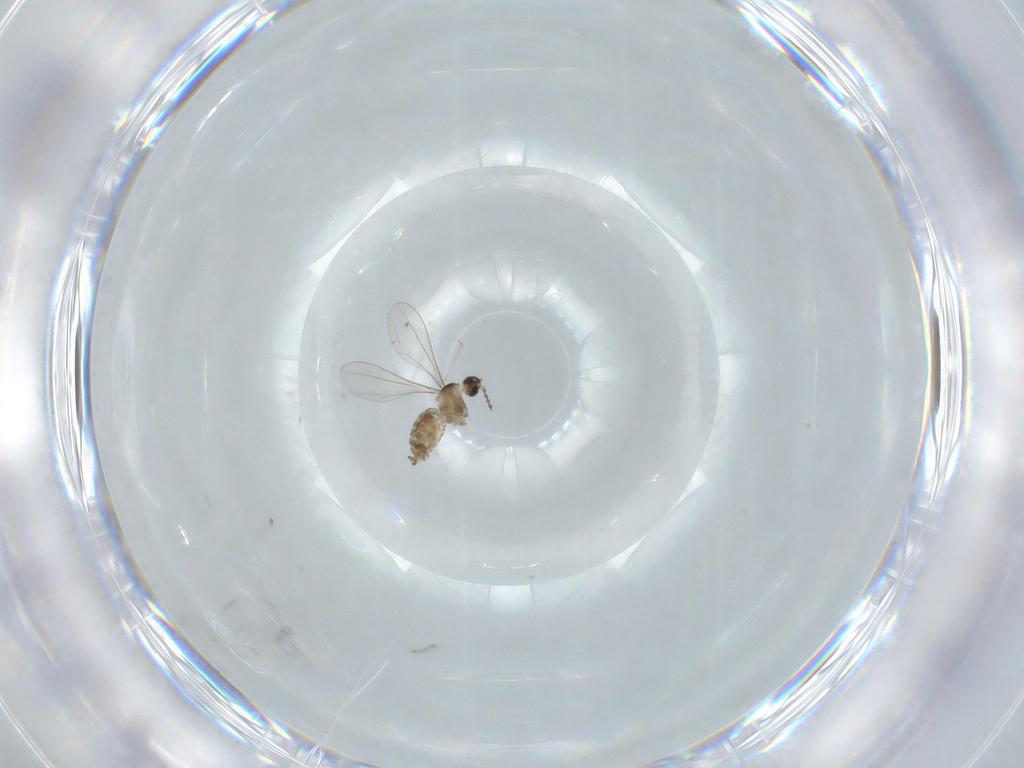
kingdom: Animalia
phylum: Arthropoda
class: Insecta
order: Diptera
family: Cecidomyiidae
